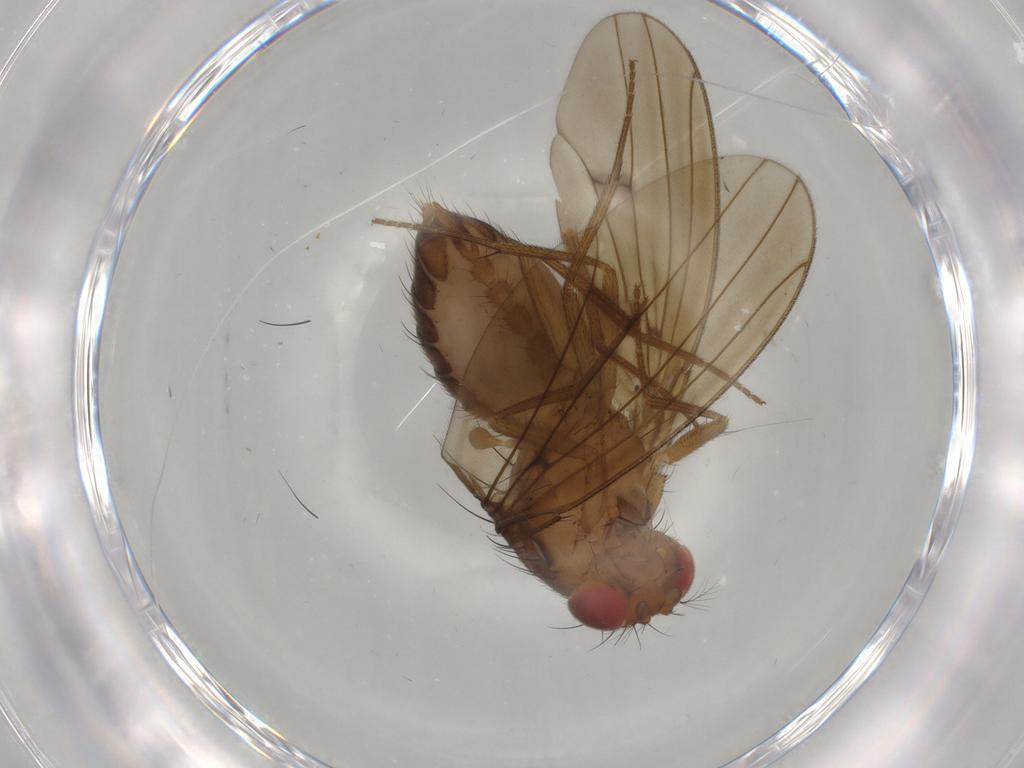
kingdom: Animalia
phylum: Arthropoda
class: Insecta
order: Diptera
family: Drosophilidae
